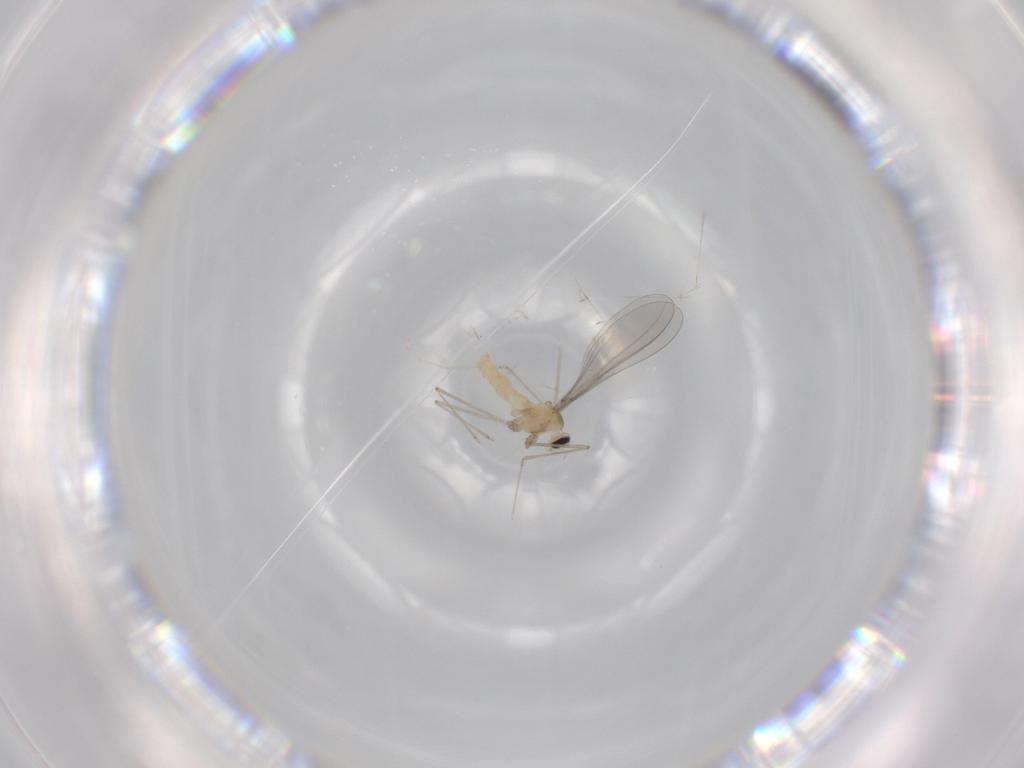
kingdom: Animalia
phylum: Arthropoda
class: Insecta
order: Diptera
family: Cecidomyiidae
